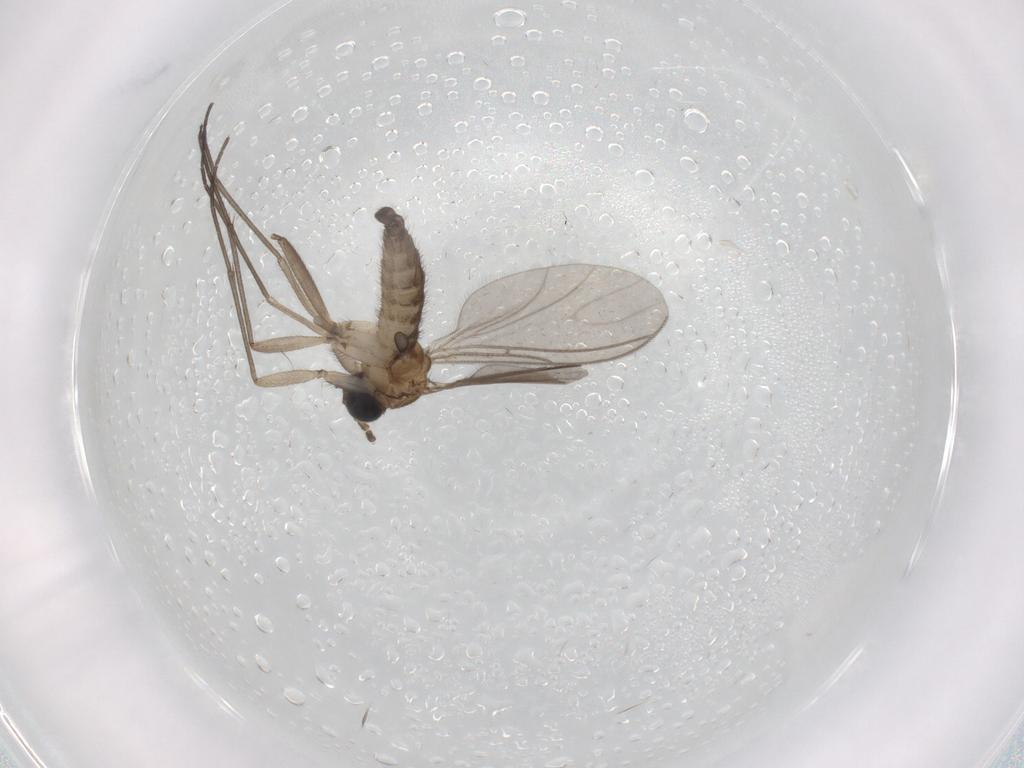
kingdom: Animalia
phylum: Arthropoda
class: Insecta
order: Diptera
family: Sciaridae
